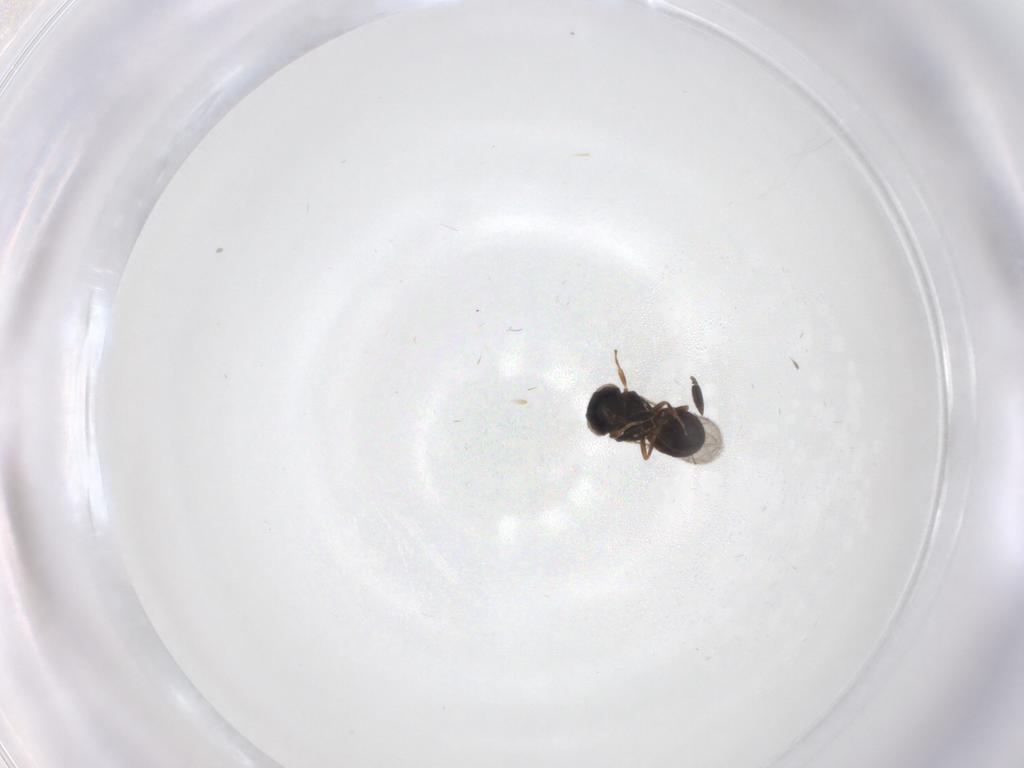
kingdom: Animalia
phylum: Arthropoda
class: Insecta
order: Hymenoptera
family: Scelionidae
